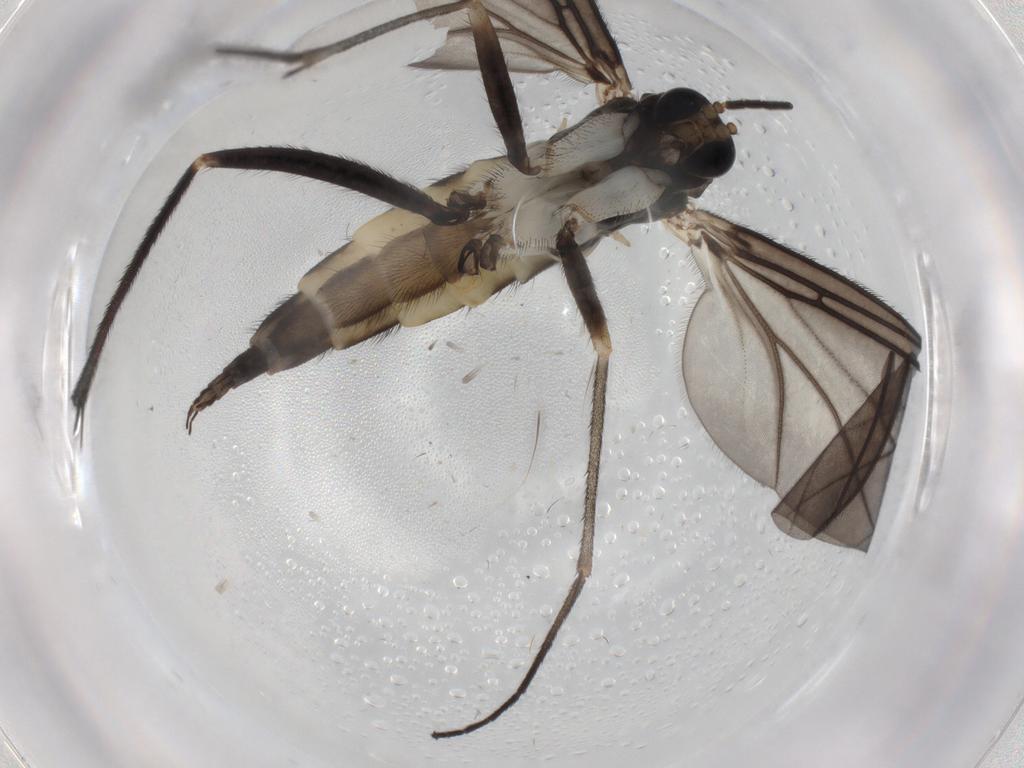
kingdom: Animalia
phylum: Arthropoda
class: Insecta
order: Diptera
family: Sciaridae
